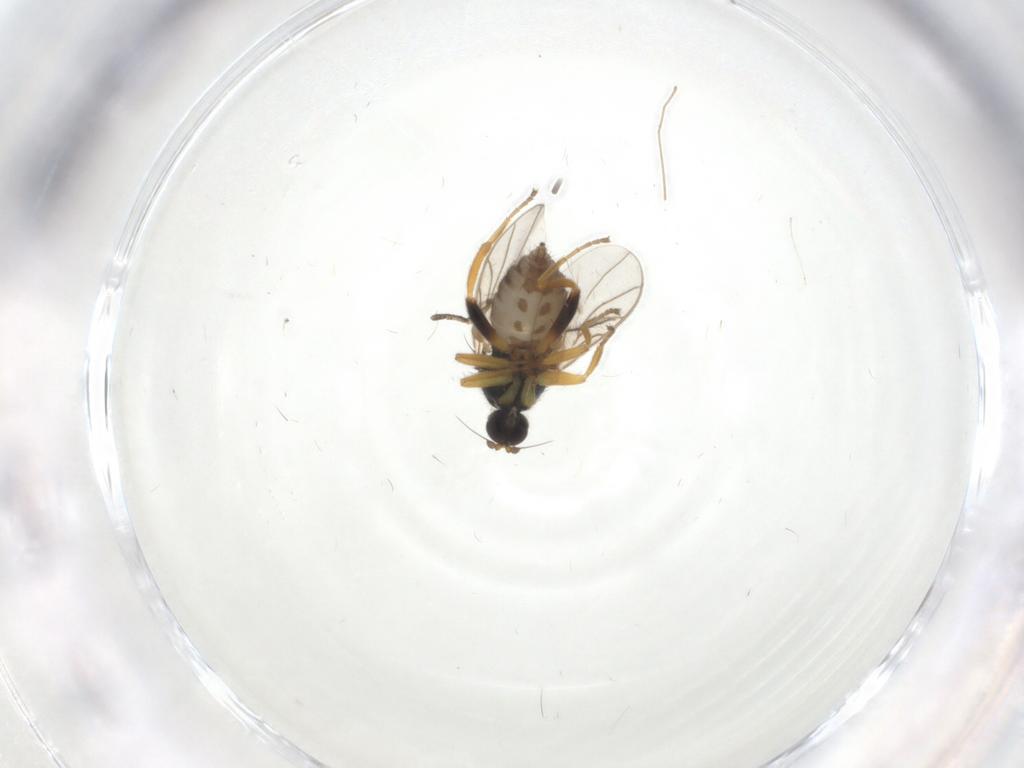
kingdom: Animalia
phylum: Arthropoda
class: Insecta
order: Diptera
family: Hybotidae
